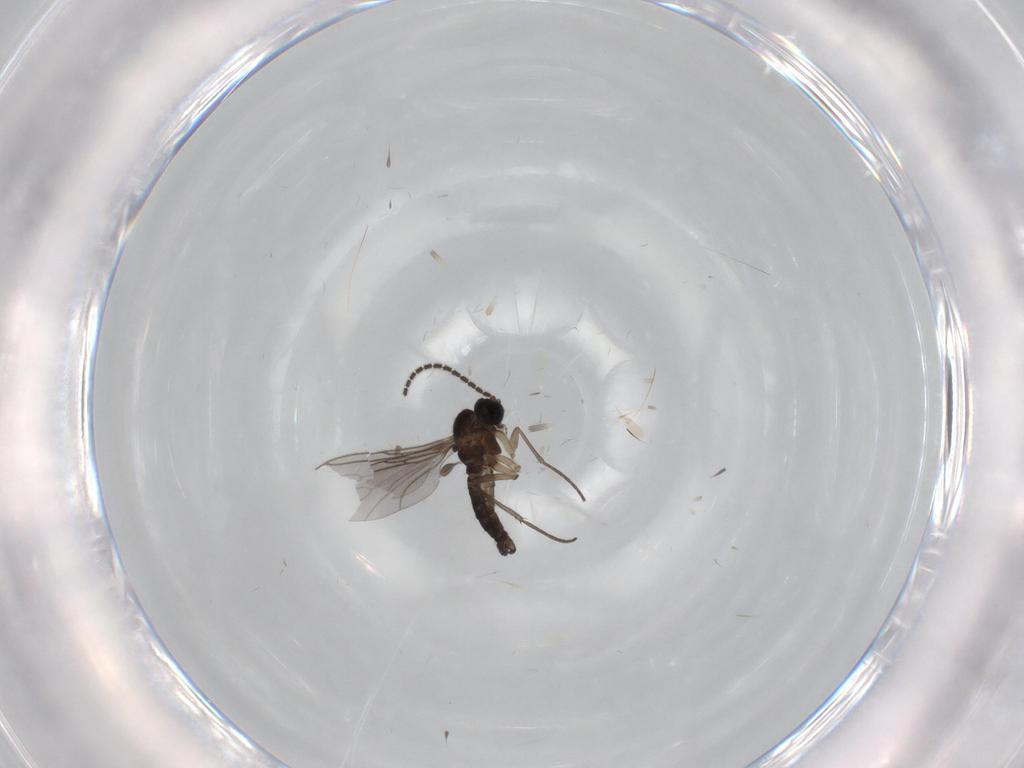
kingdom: Animalia
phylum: Arthropoda
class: Insecta
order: Diptera
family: Sciaridae
